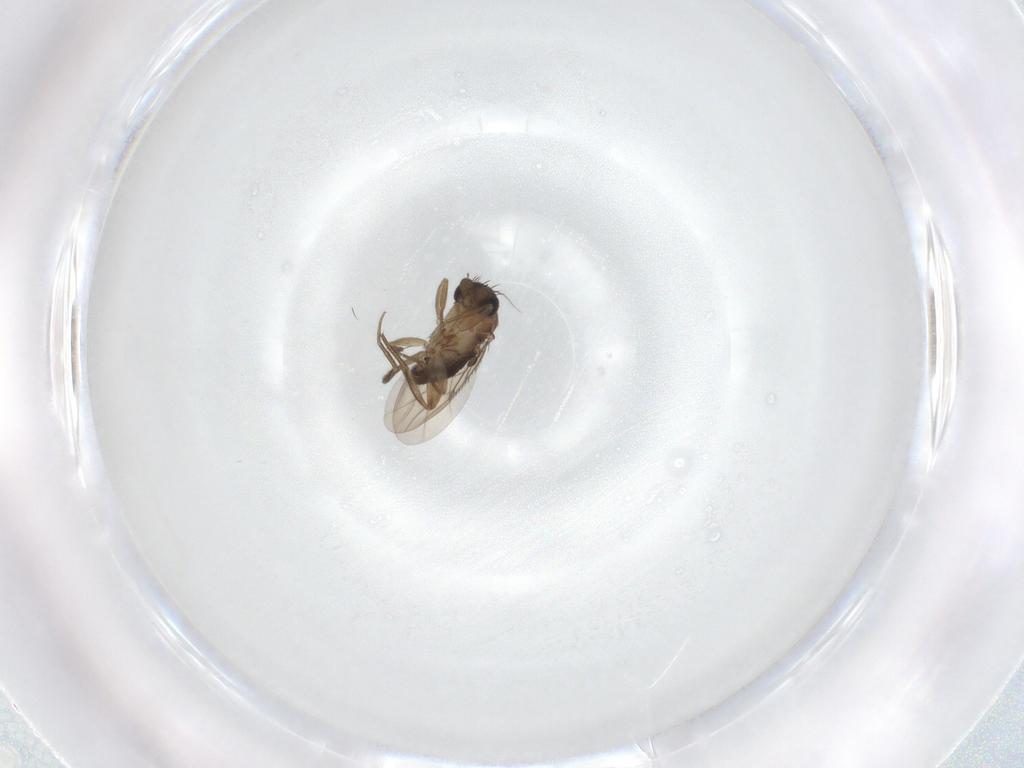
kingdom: Animalia
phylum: Arthropoda
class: Insecta
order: Diptera
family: Phoridae
